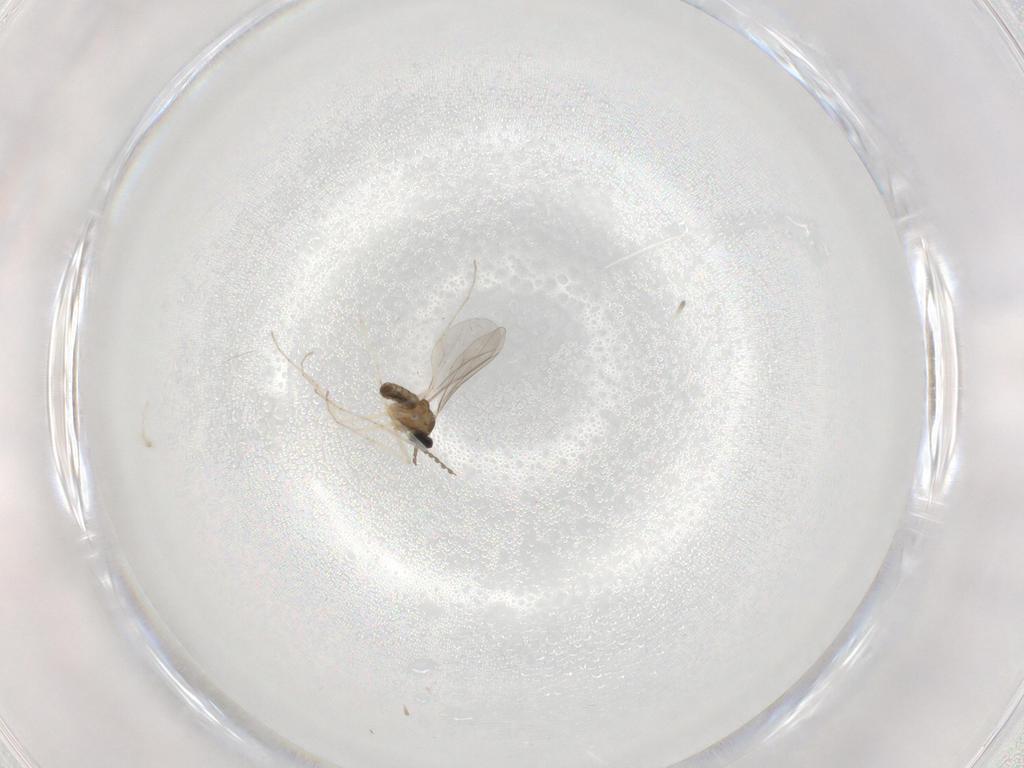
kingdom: Animalia
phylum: Arthropoda
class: Insecta
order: Diptera
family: Cecidomyiidae
